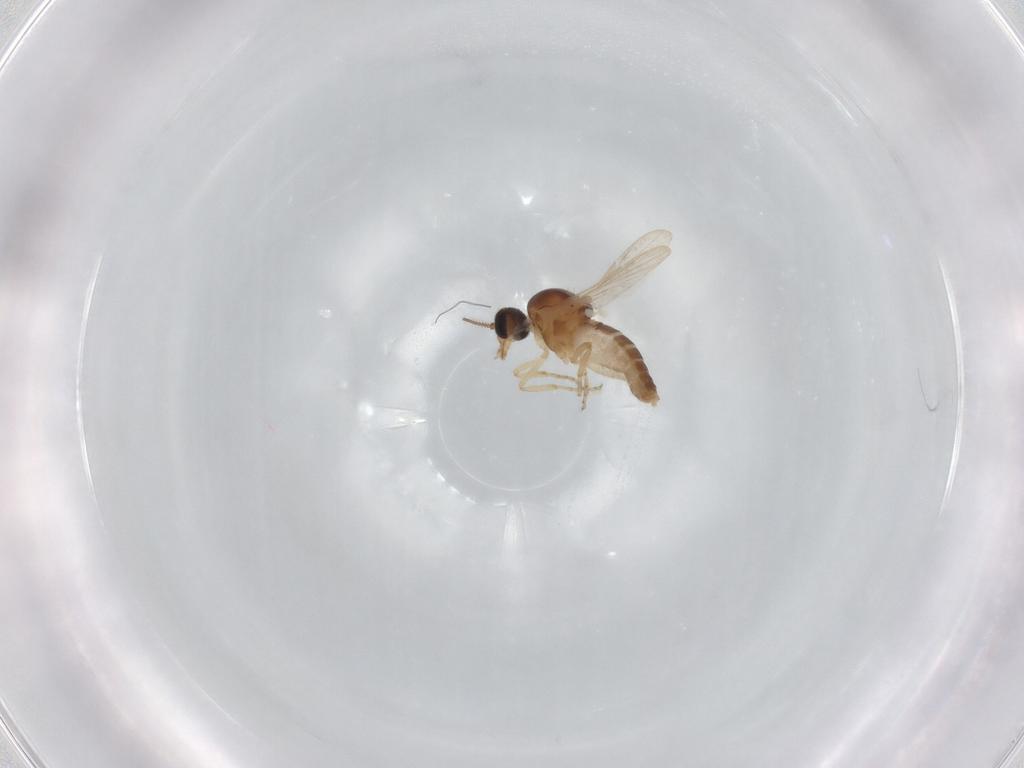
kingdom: Animalia
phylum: Arthropoda
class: Insecta
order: Diptera
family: Ceratopogonidae
